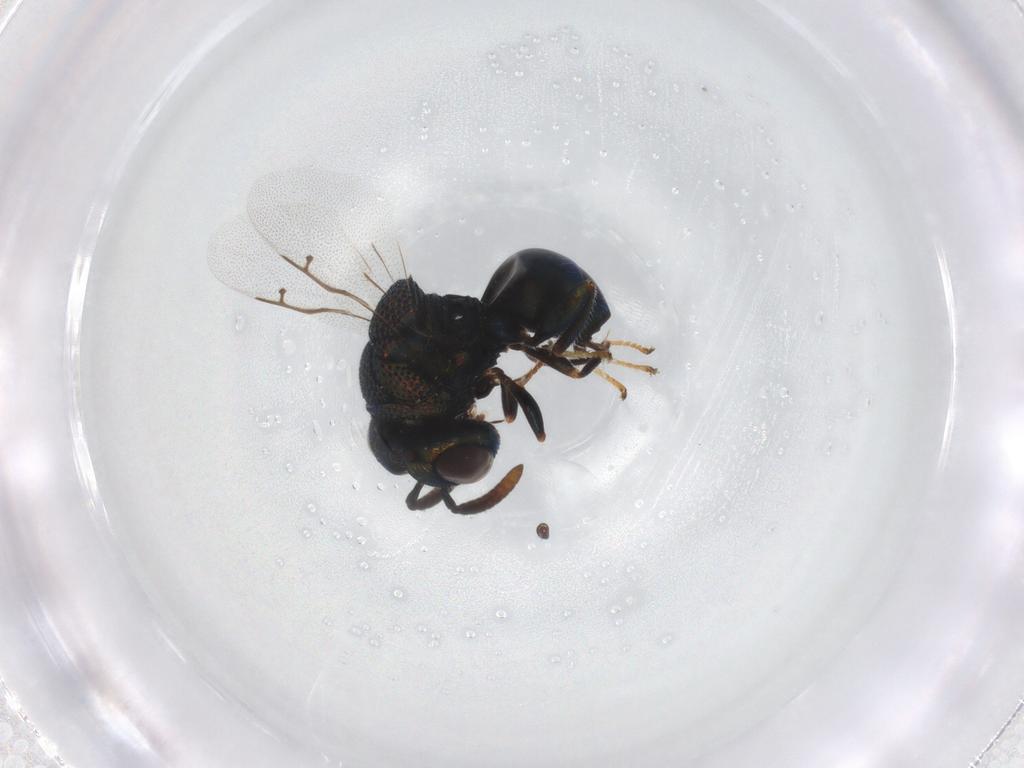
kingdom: Animalia
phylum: Arthropoda
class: Insecta
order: Hymenoptera
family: Perilampidae
